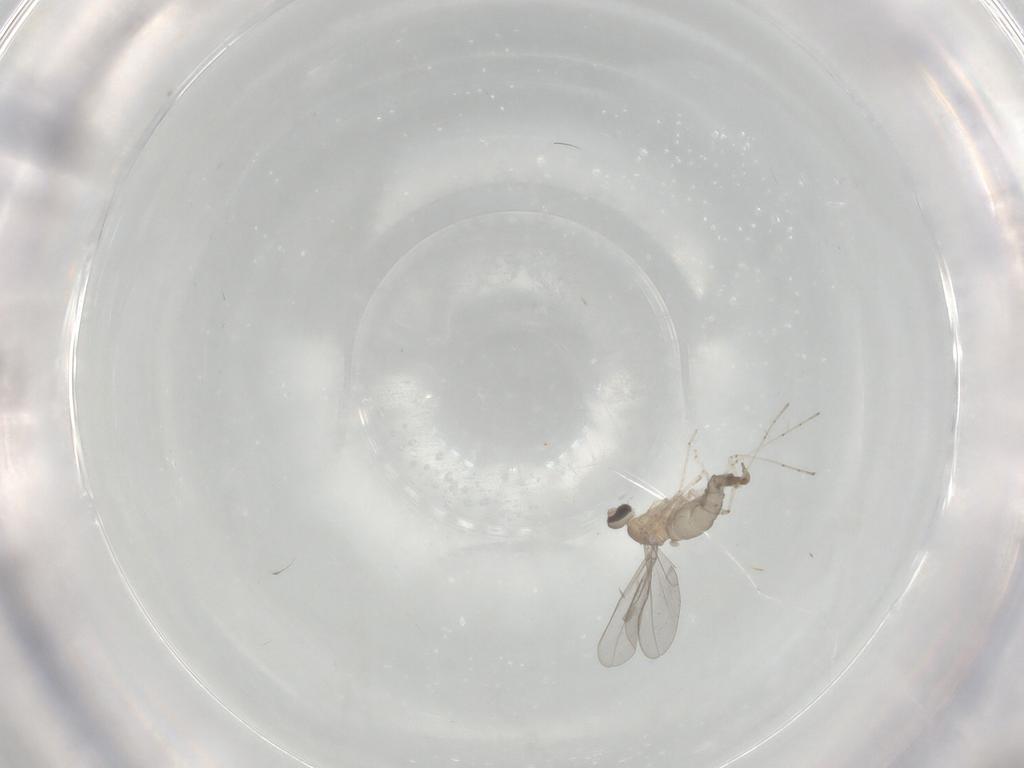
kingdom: Animalia
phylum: Arthropoda
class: Insecta
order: Diptera
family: Cecidomyiidae
